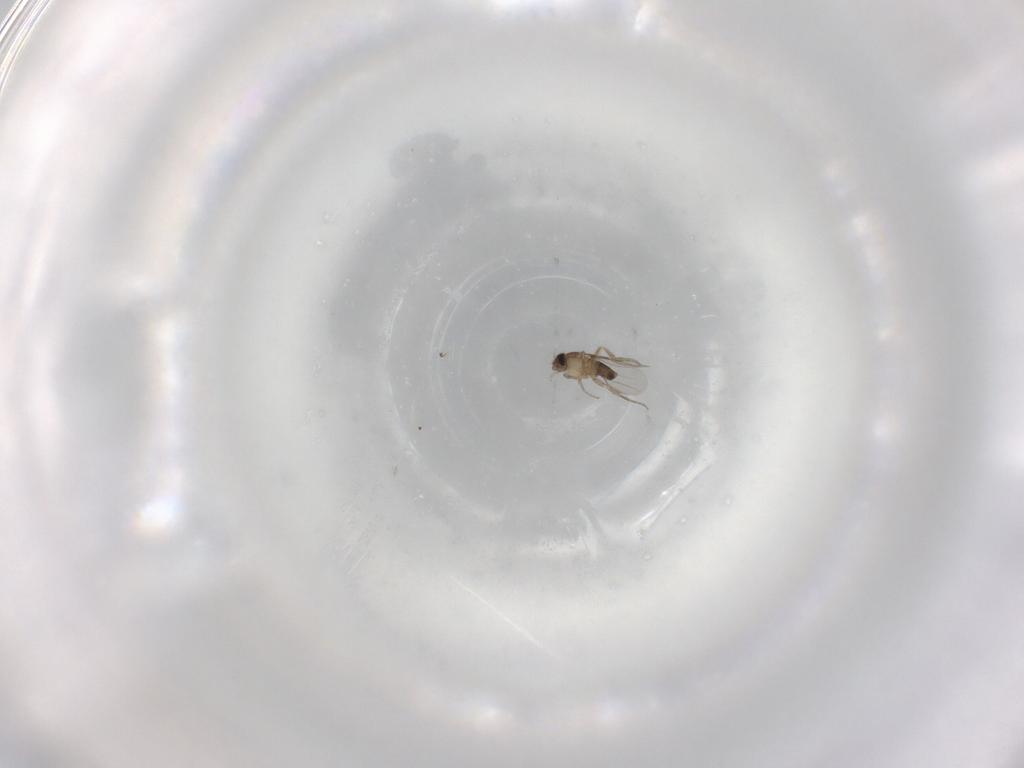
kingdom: Animalia
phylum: Arthropoda
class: Insecta
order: Diptera
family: Phoridae
